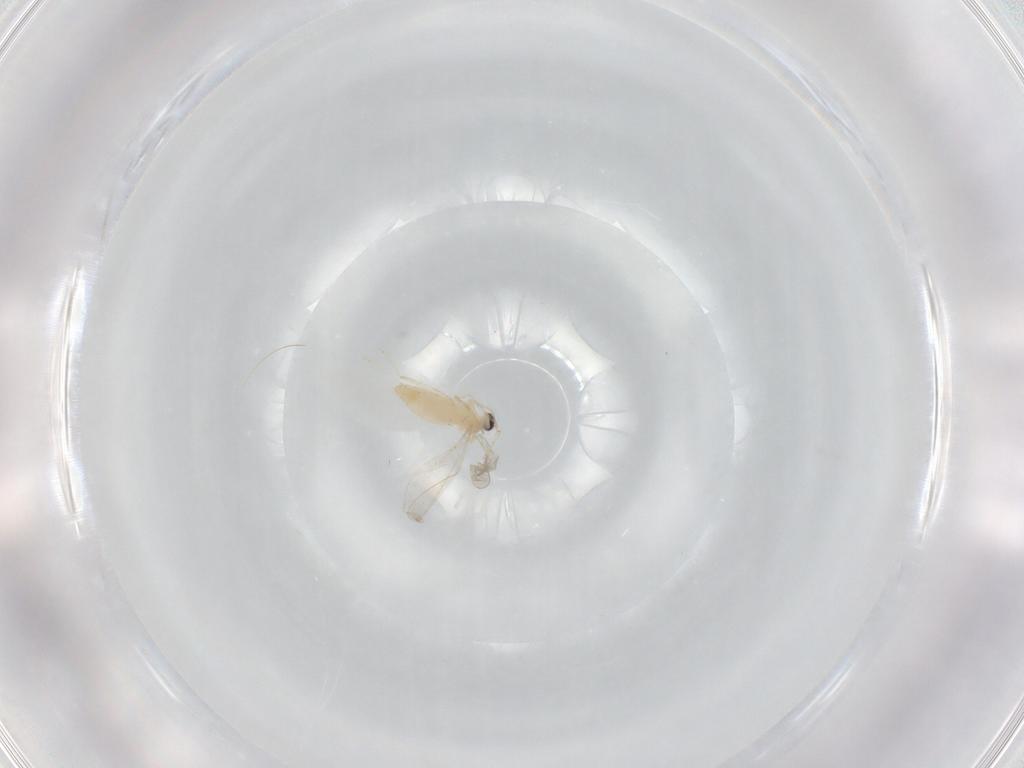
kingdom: Animalia
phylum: Arthropoda
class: Insecta
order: Diptera
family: Cecidomyiidae
